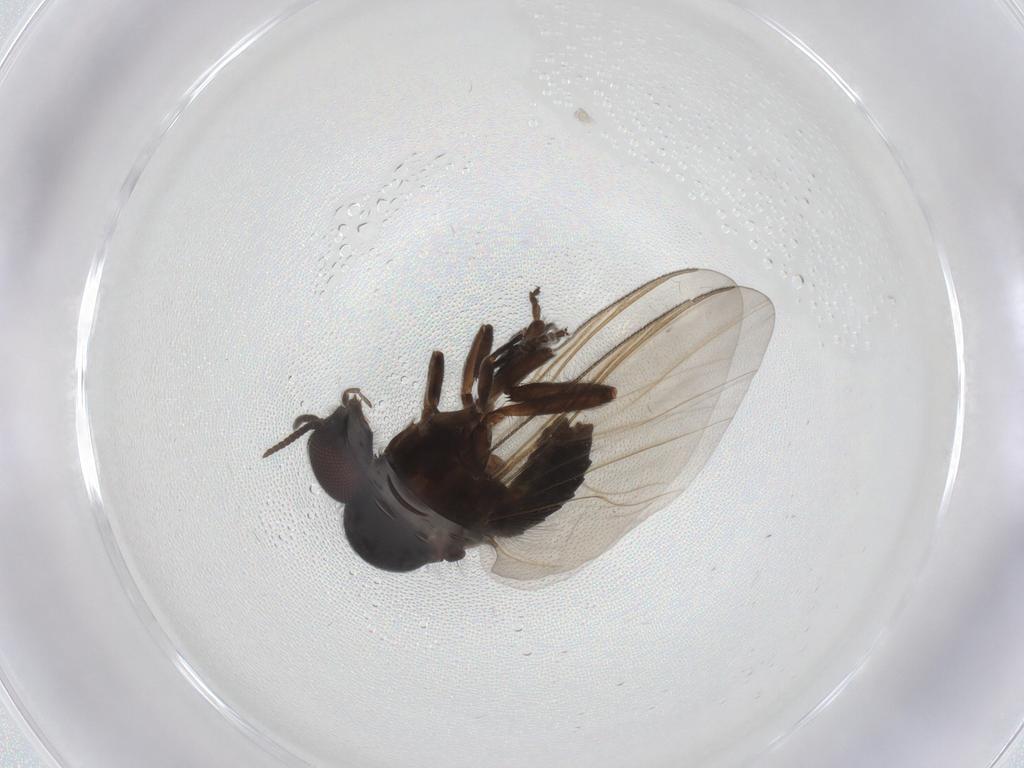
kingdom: Animalia
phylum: Arthropoda
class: Insecta
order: Diptera
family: Simuliidae
